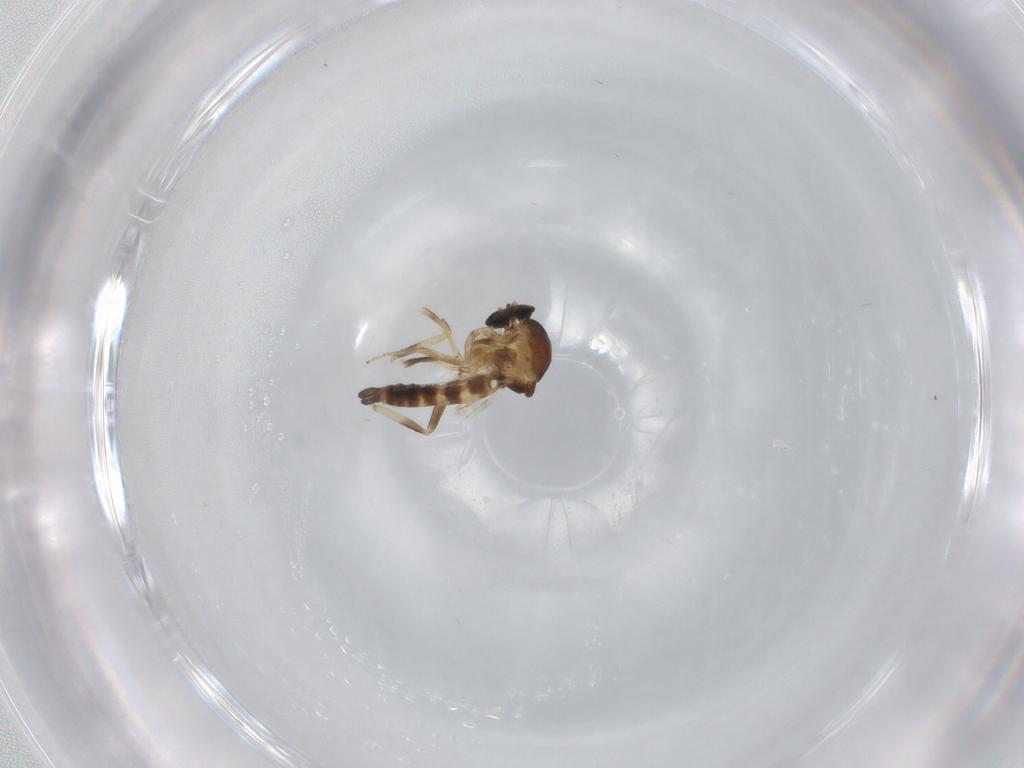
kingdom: Animalia
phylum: Arthropoda
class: Insecta
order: Diptera
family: Ceratopogonidae
